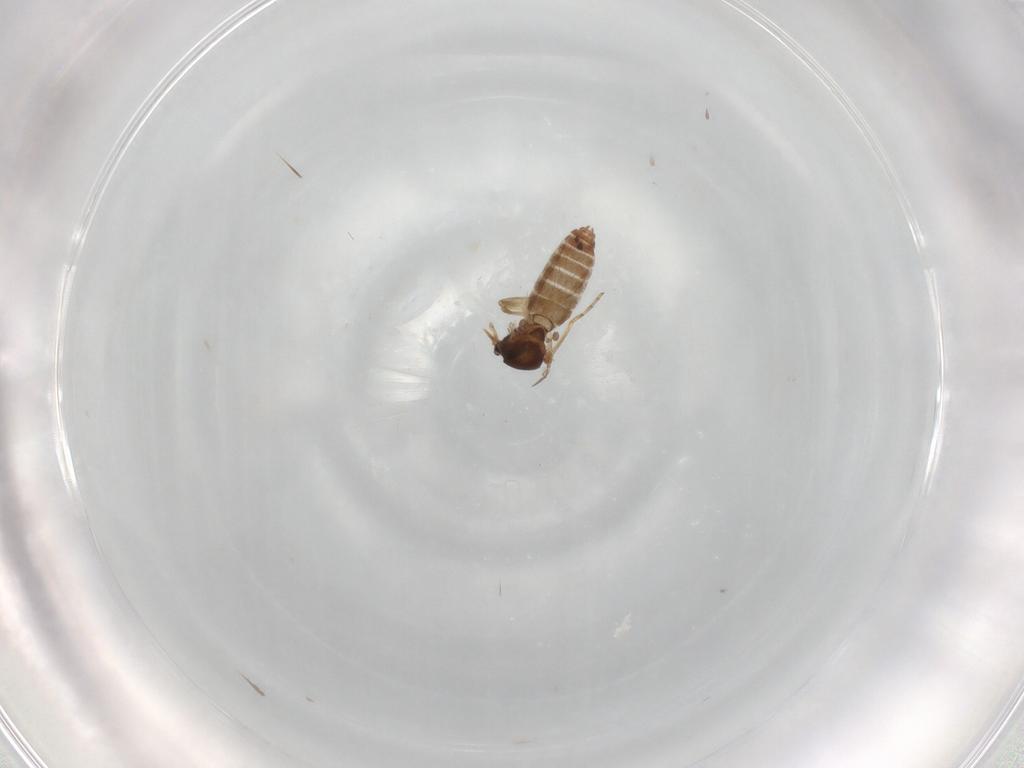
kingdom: Animalia
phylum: Arthropoda
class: Insecta
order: Diptera
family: Ceratopogonidae
